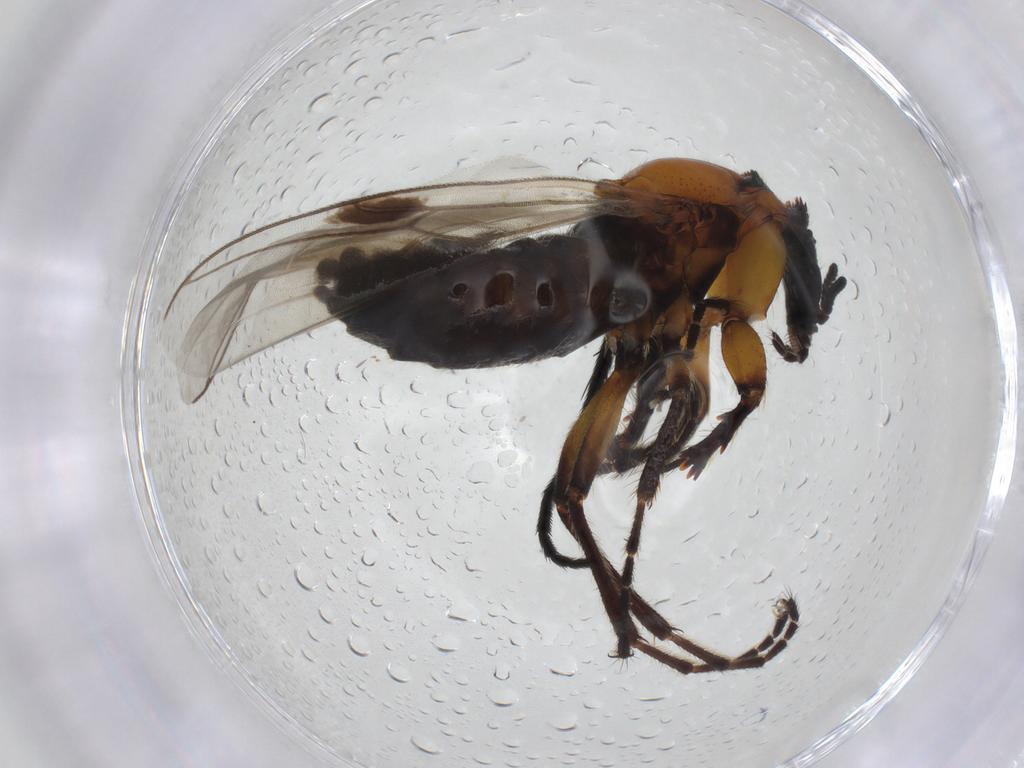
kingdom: Animalia
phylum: Arthropoda
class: Insecta
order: Diptera
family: Bibionidae
